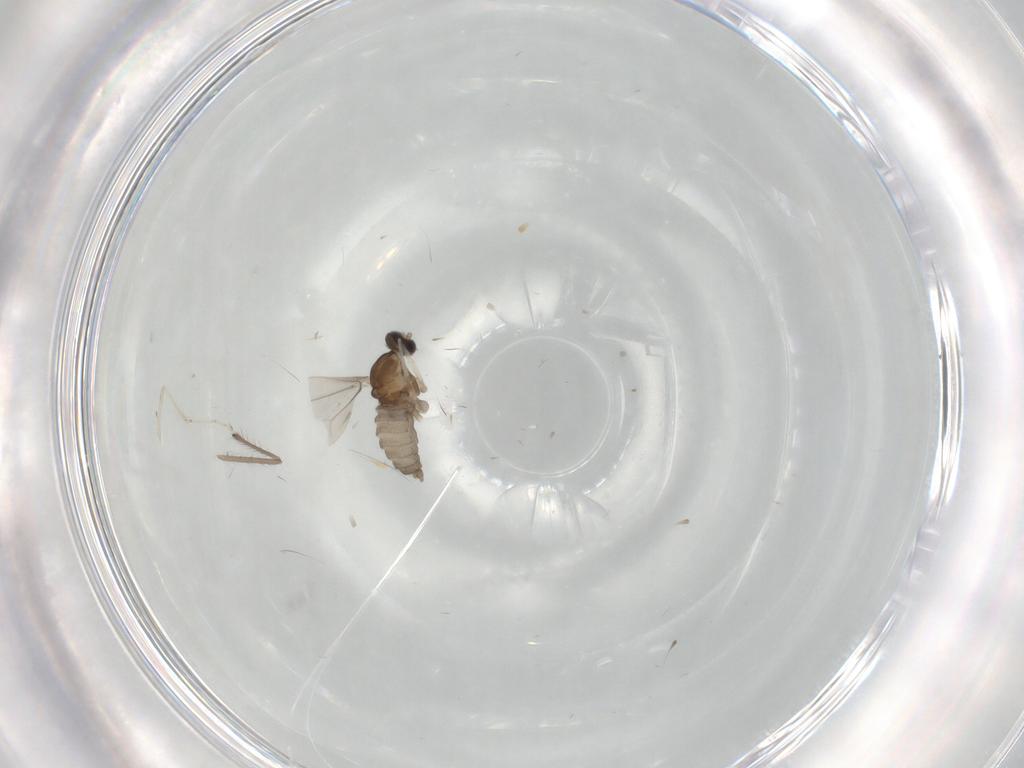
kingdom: Animalia
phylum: Arthropoda
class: Insecta
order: Diptera
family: Chironomidae
